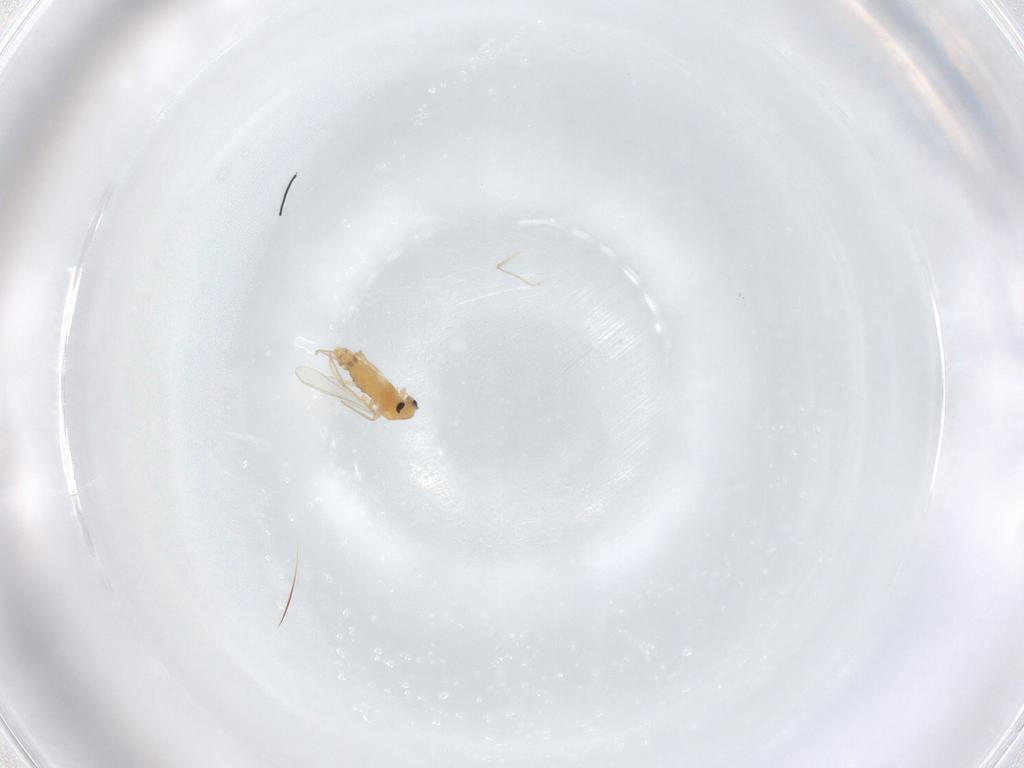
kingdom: Animalia
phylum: Arthropoda
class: Insecta
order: Diptera
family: Chironomidae
